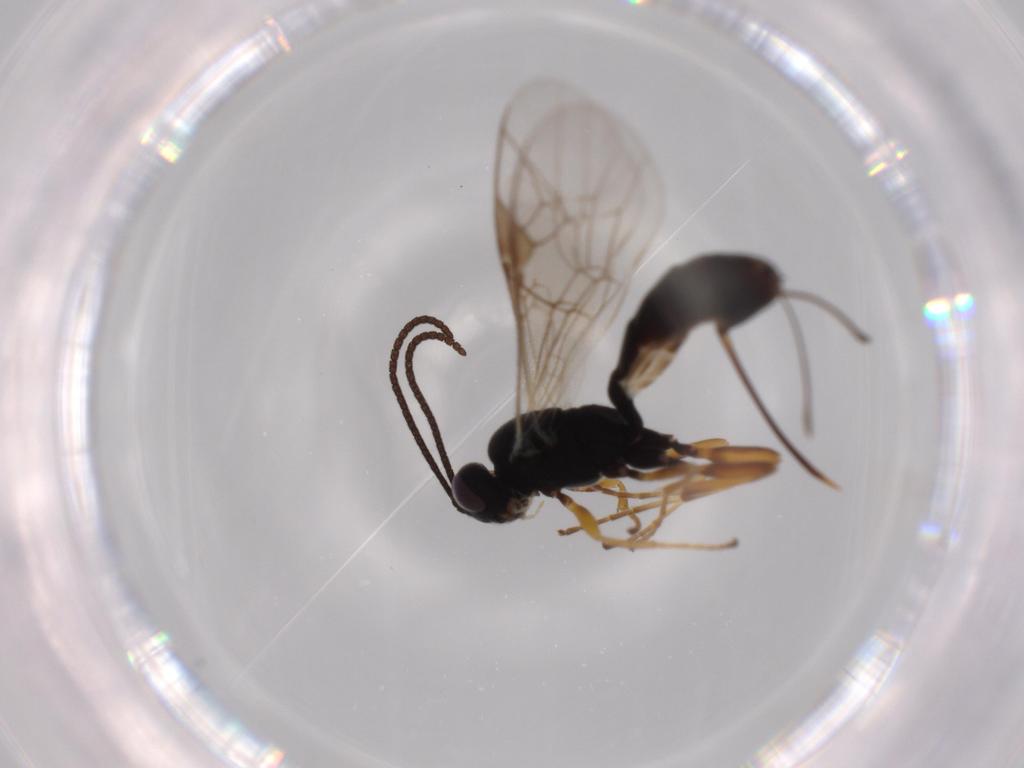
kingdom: Animalia
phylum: Arthropoda
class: Insecta
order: Hymenoptera
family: Ichneumonidae
